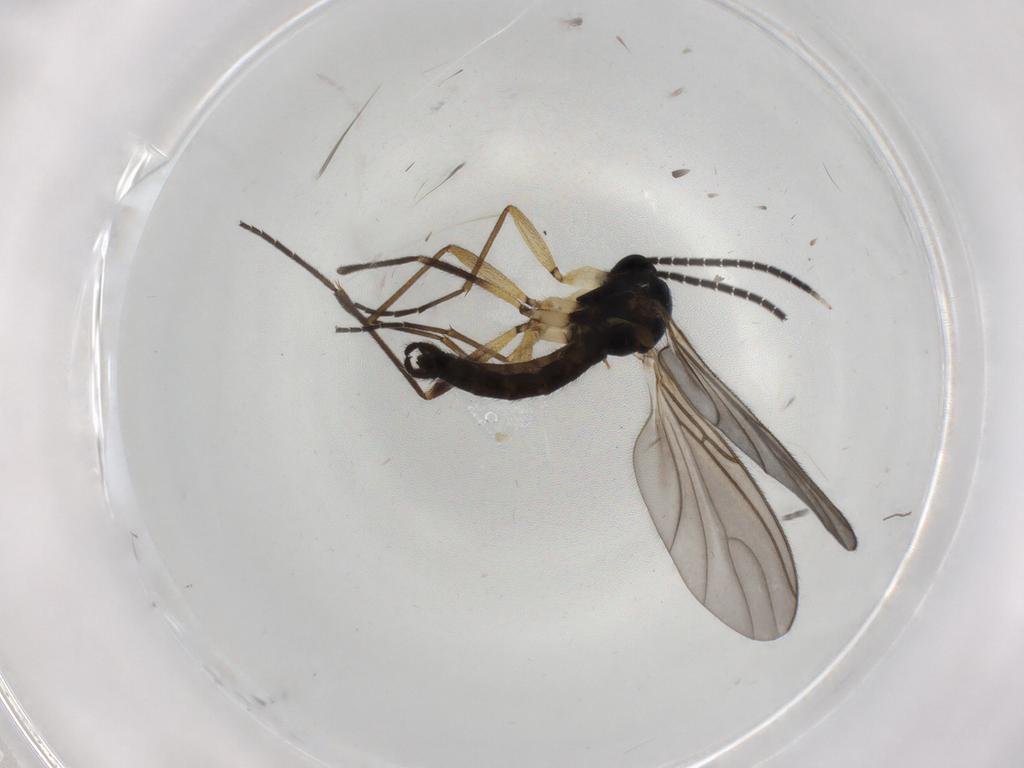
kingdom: Animalia
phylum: Arthropoda
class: Insecta
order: Diptera
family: Sciaridae
